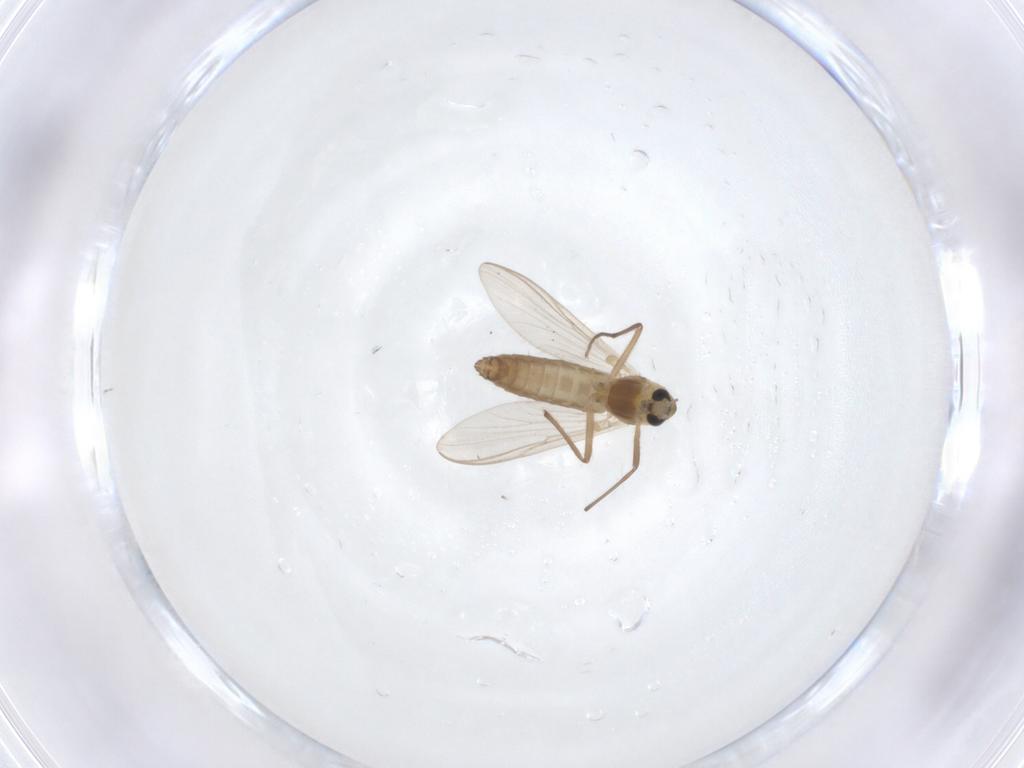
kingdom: Animalia
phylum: Arthropoda
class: Insecta
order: Diptera
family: Chironomidae
